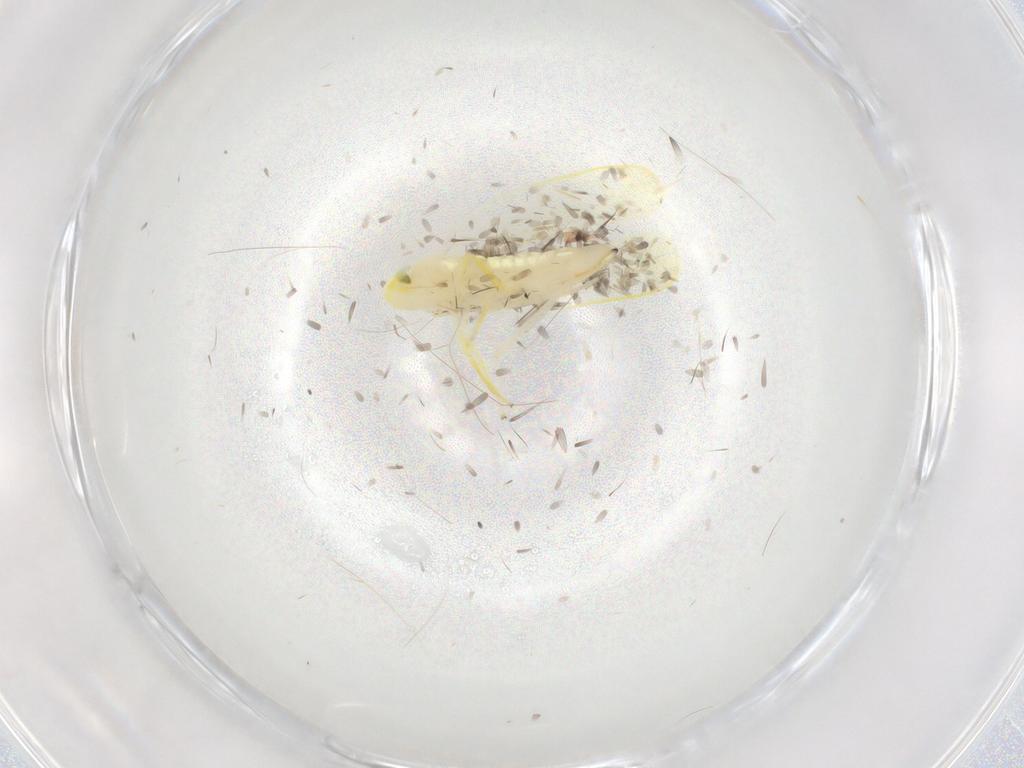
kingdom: Animalia
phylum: Arthropoda
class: Insecta
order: Hemiptera
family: Cicadellidae
